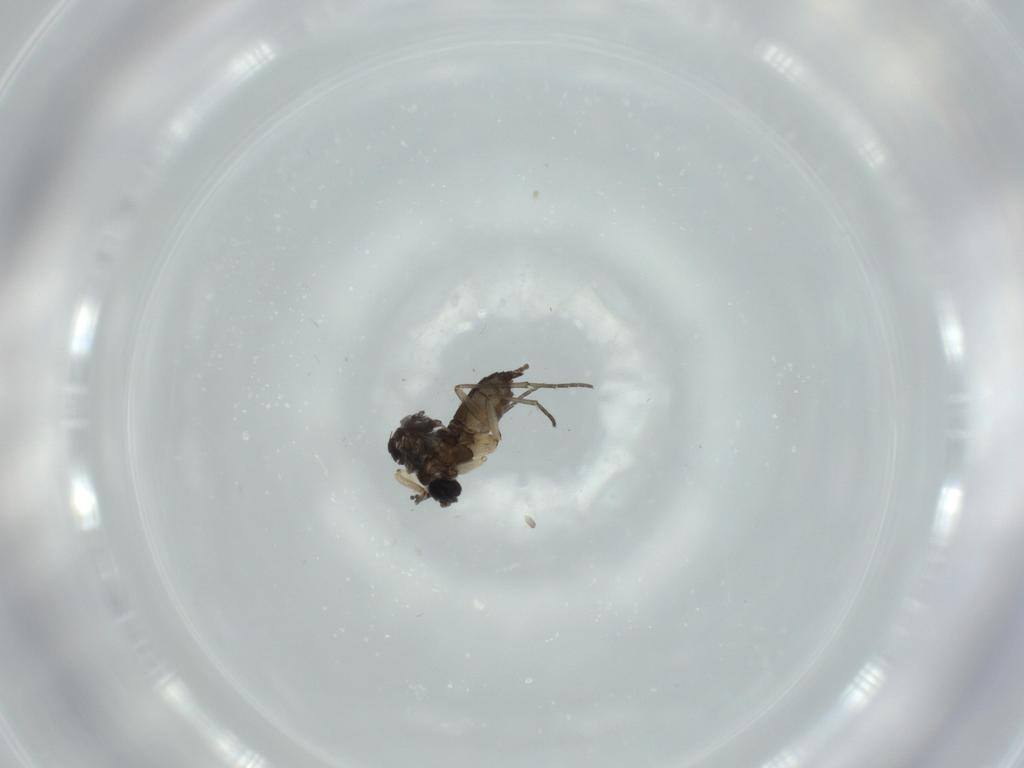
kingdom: Animalia
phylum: Arthropoda
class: Insecta
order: Diptera
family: Sciaridae
